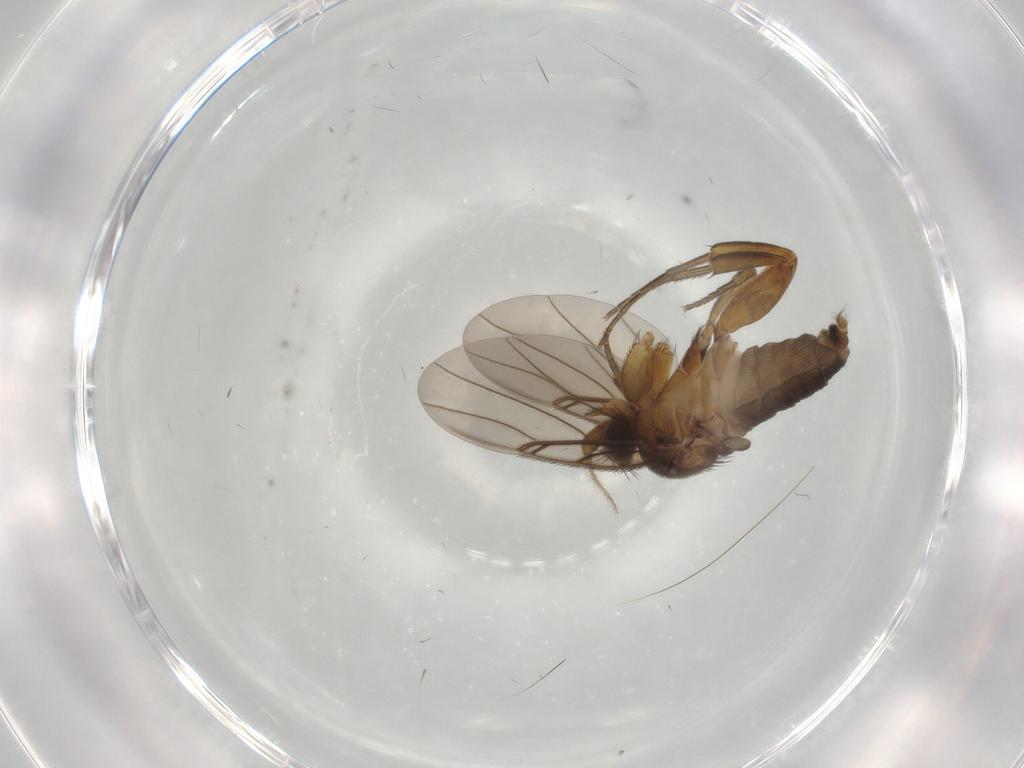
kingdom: Animalia
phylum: Arthropoda
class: Insecta
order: Diptera
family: Phoridae
